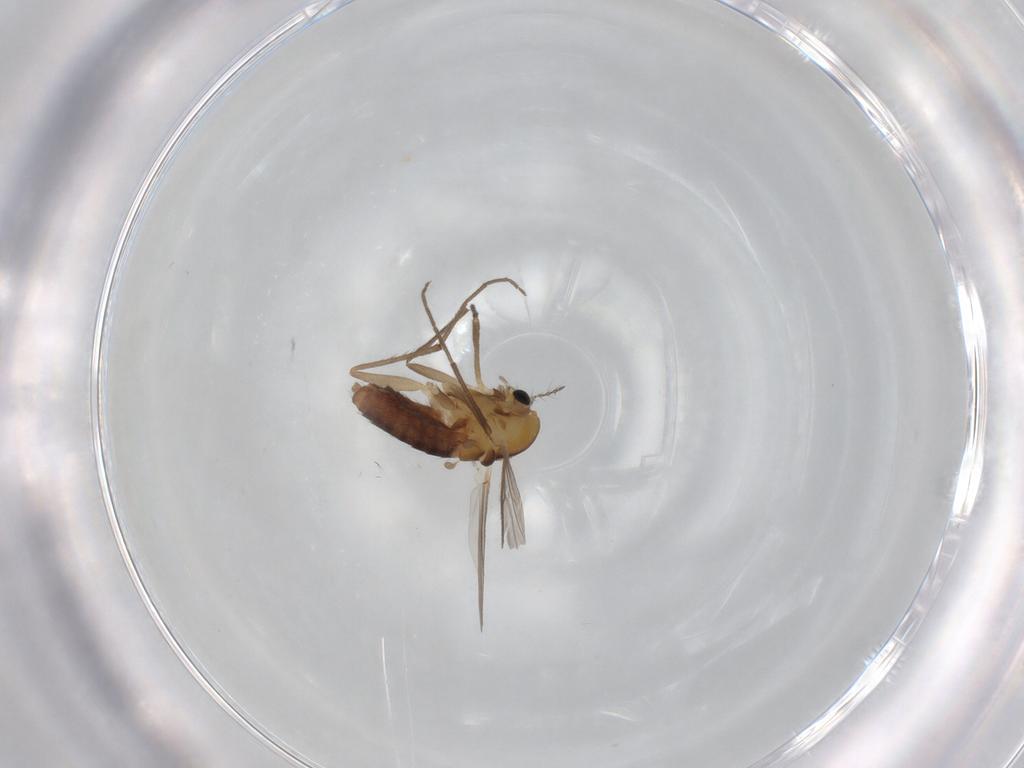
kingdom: Animalia
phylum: Arthropoda
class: Insecta
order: Diptera
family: Chironomidae
